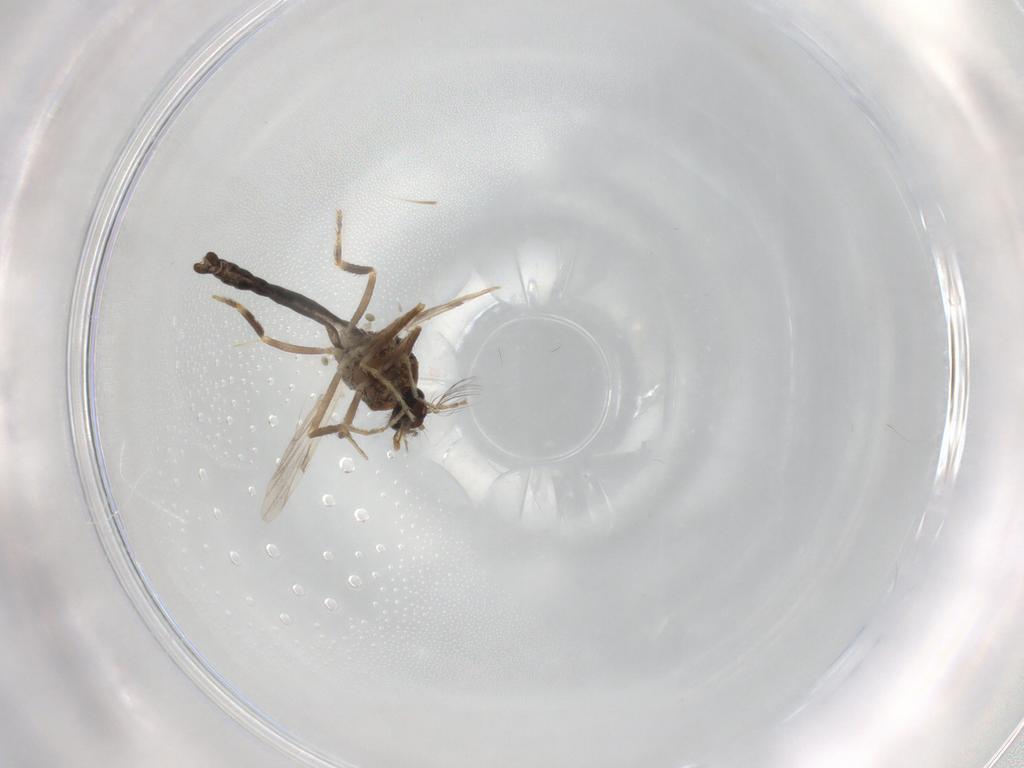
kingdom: Animalia
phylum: Arthropoda
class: Insecta
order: Diptera
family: Ceratopogonidae
